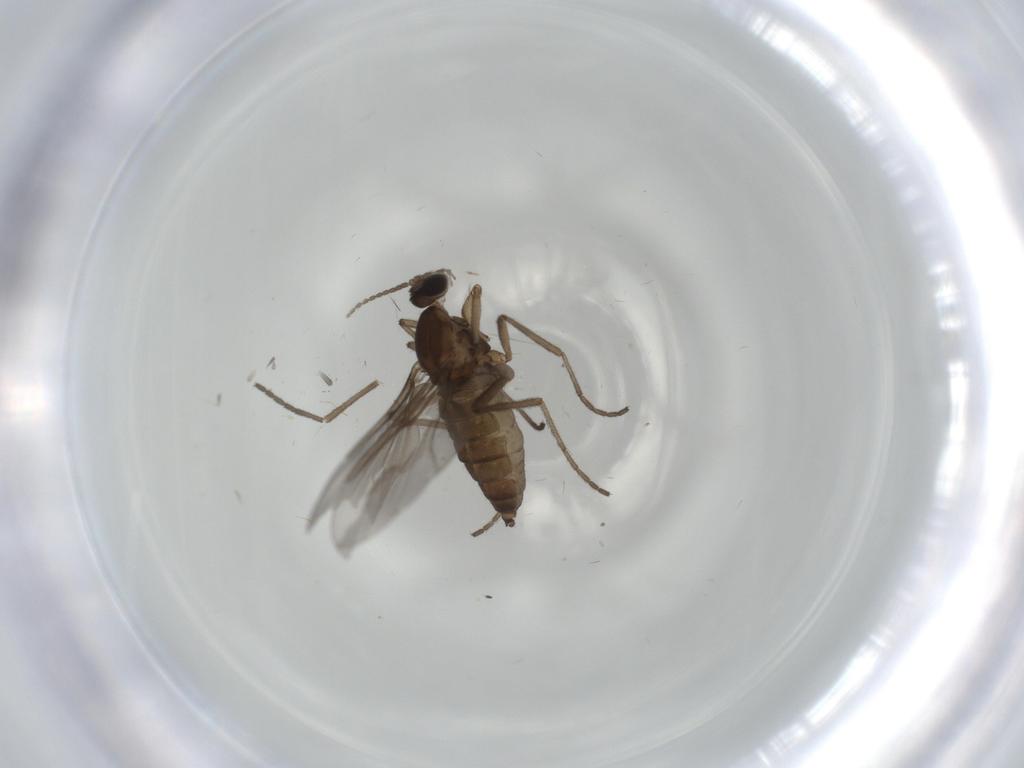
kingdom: Animalia
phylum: Arthropoda
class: Insecta
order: Diptera
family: Cecidomyiidae
